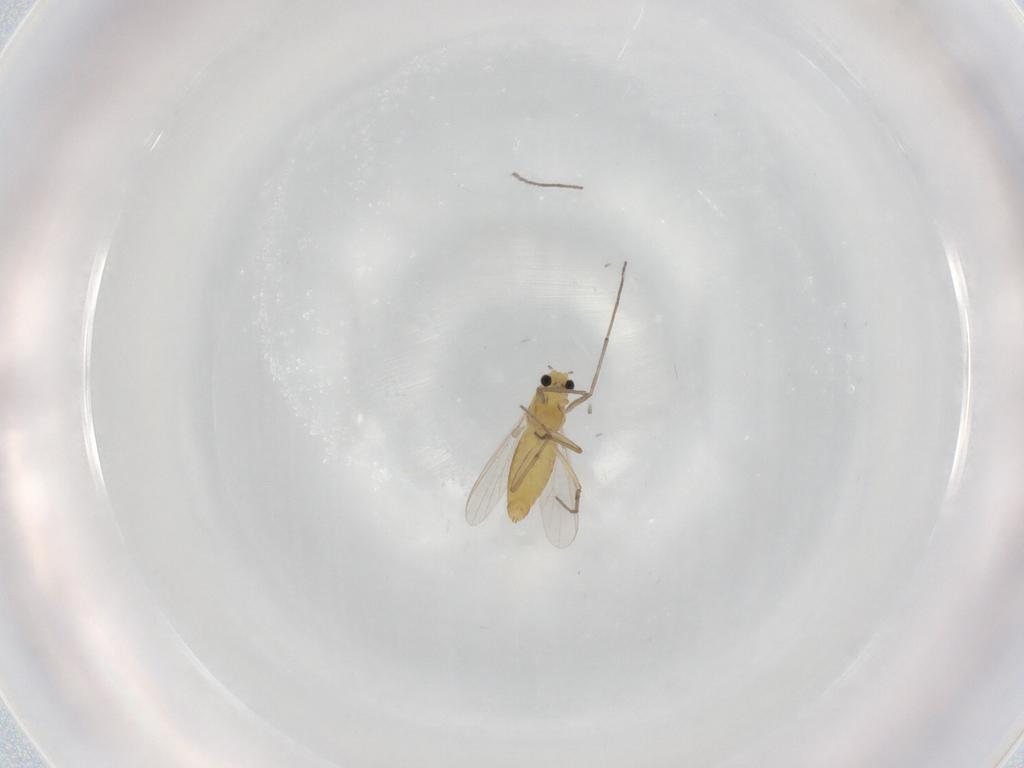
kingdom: Animalia
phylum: Arthropoda
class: Insecta
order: Diptera
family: Chironomidae
